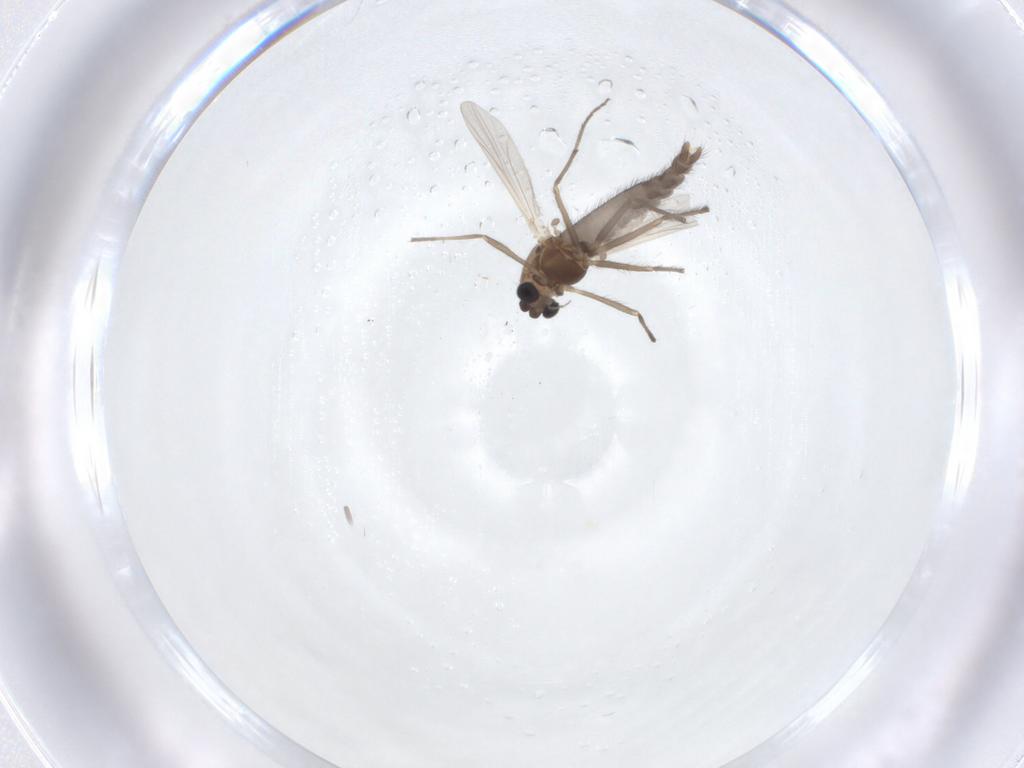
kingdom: Animalia
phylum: Arthropoda
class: Insecta
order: Diptera
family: Chironomidae
